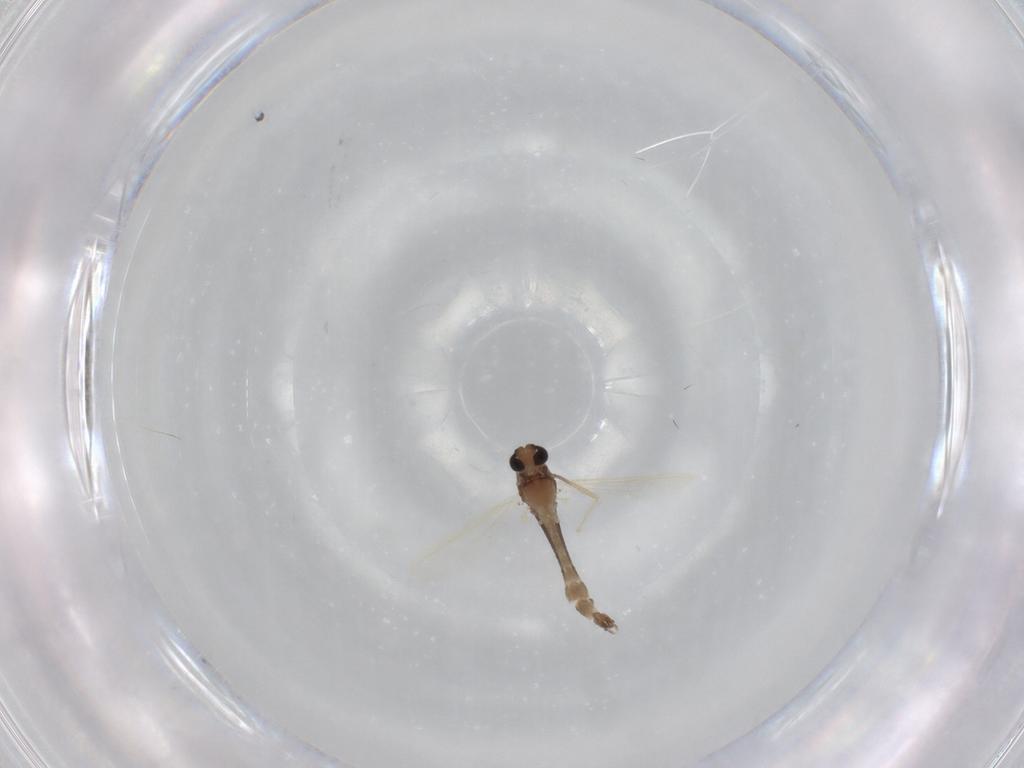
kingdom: Animalia
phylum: Arthropoda
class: Insecta
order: Diptera
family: Chironomidae
